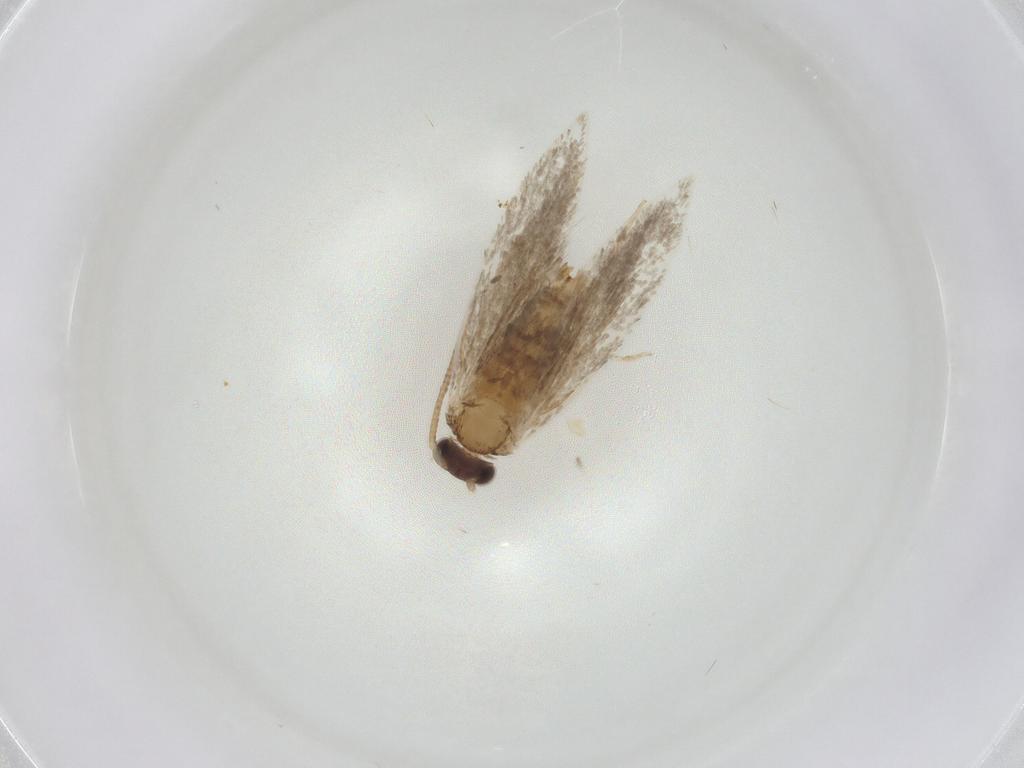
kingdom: Animalia
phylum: Arthropoda
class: Insecta
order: Lepidoptera
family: Tineidae
